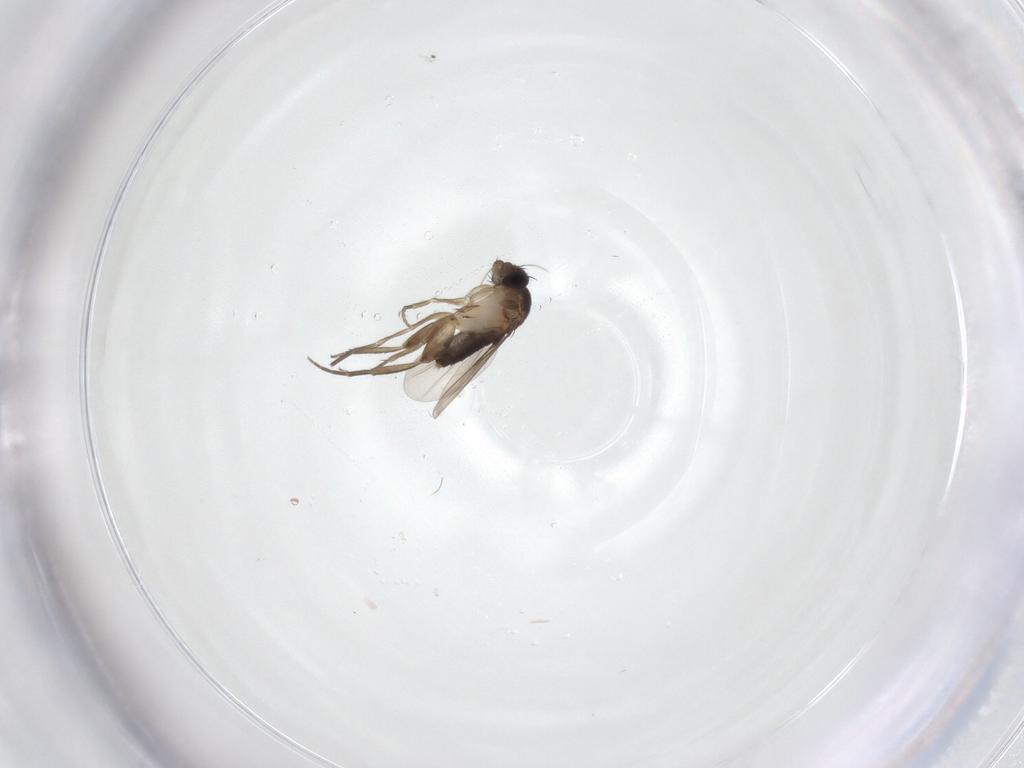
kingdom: Animalia
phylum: Arthropoda
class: Insecta
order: Diptera
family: Phoridae
